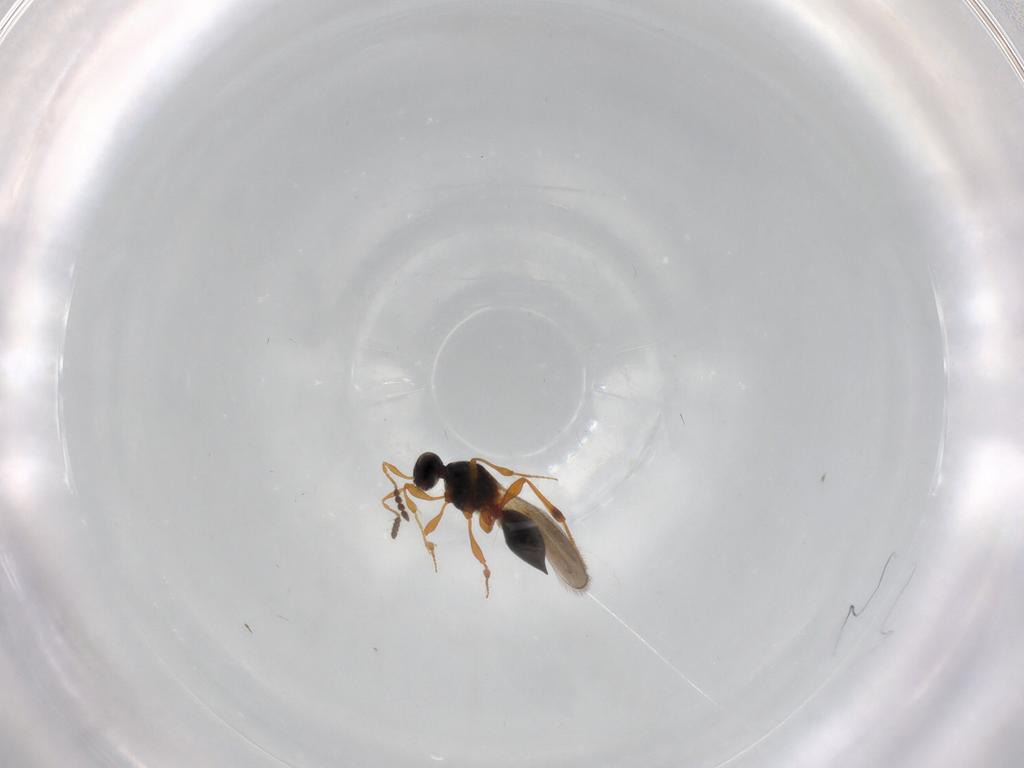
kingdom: Animalia
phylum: Arthropoda
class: Insecta
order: Hymenoptera
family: Platygastridae
